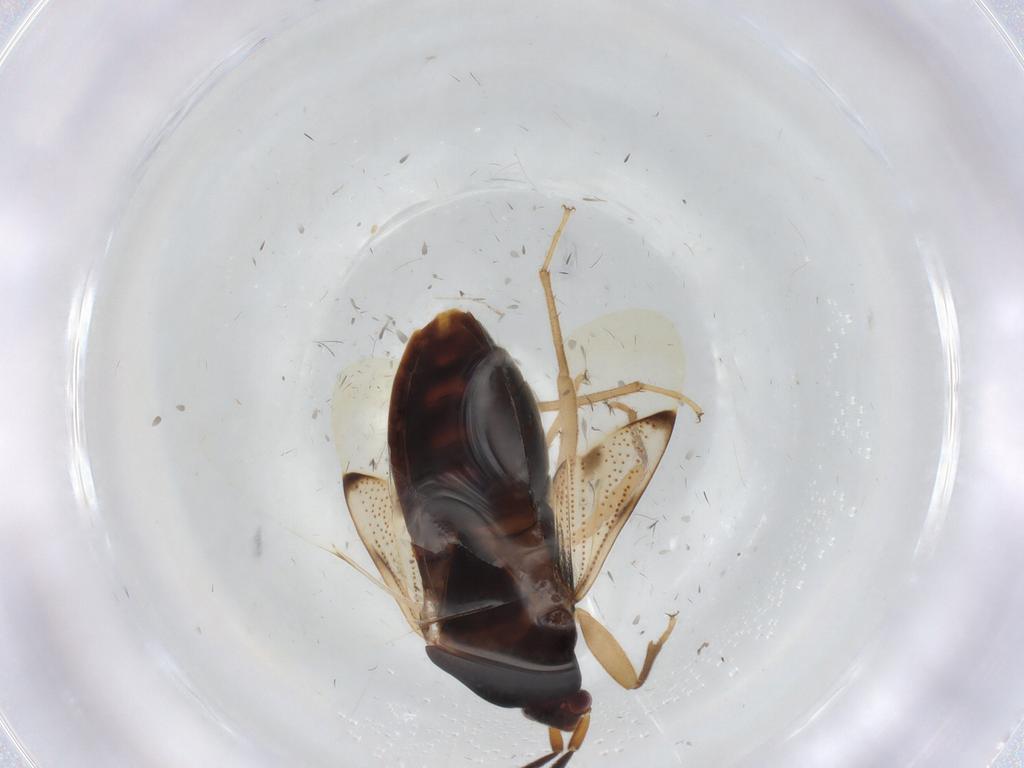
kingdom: Animalia
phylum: Arthropoda
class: Insecta
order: Hemiptera
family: Rhyparochromidae
